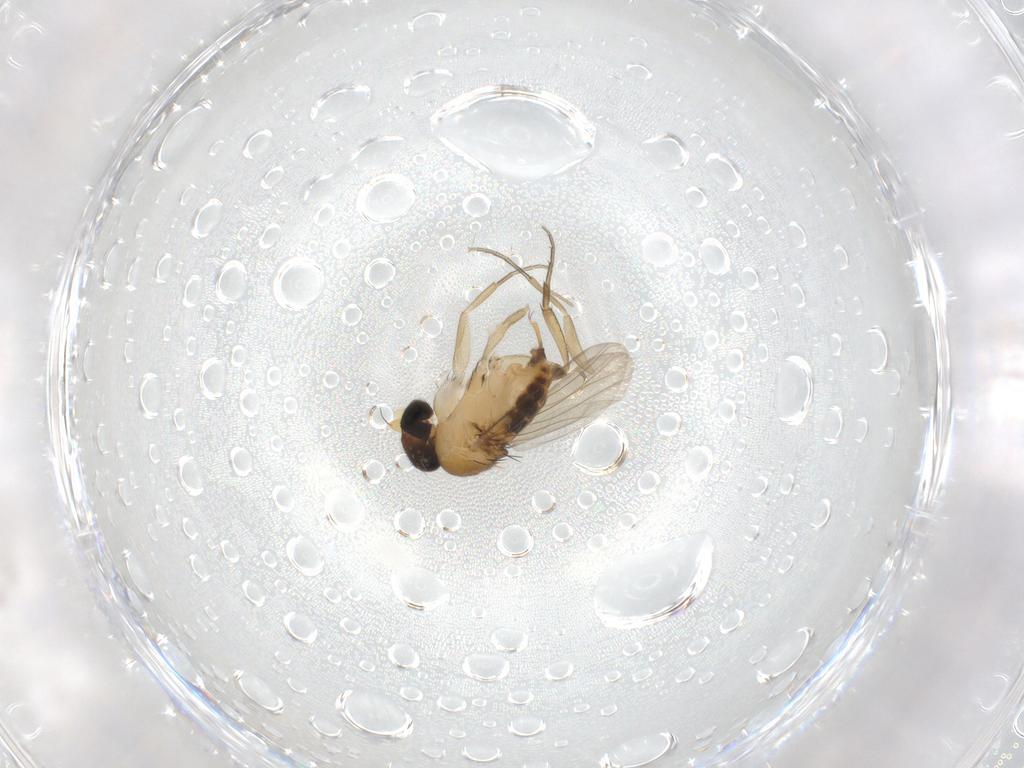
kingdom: Animalia
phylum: Arthropoda
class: Insecta
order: Diptera
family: Phoridae
